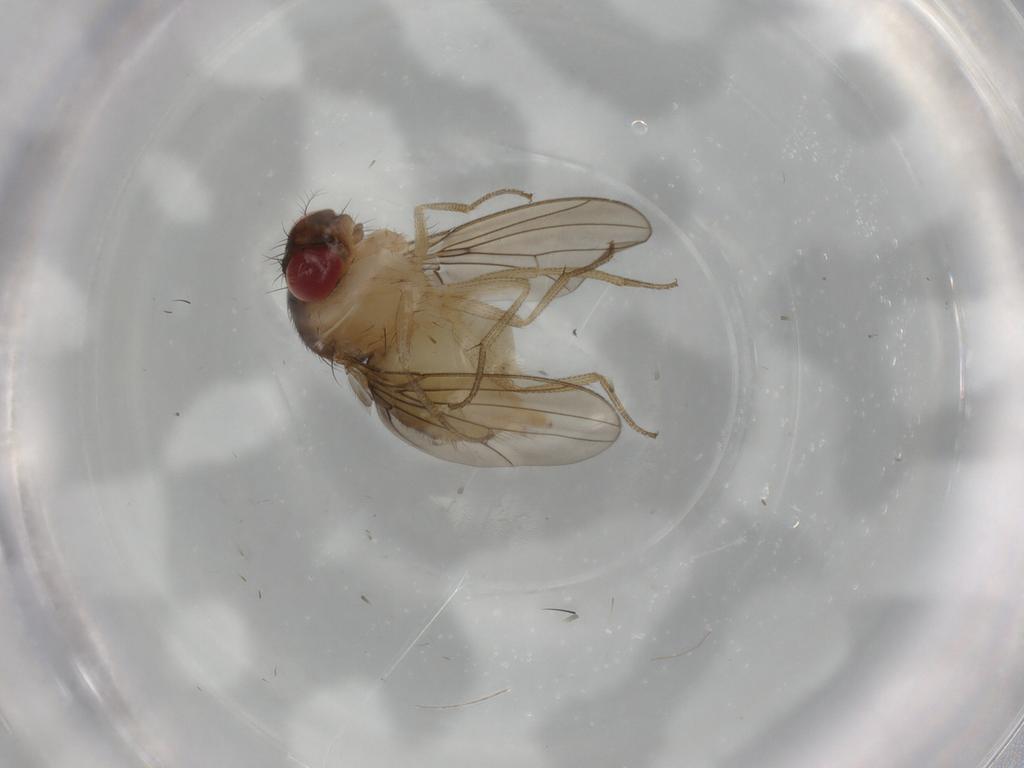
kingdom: Animalia
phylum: Arthropoda
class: Insecta
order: Diptera
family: Drosophilidae
